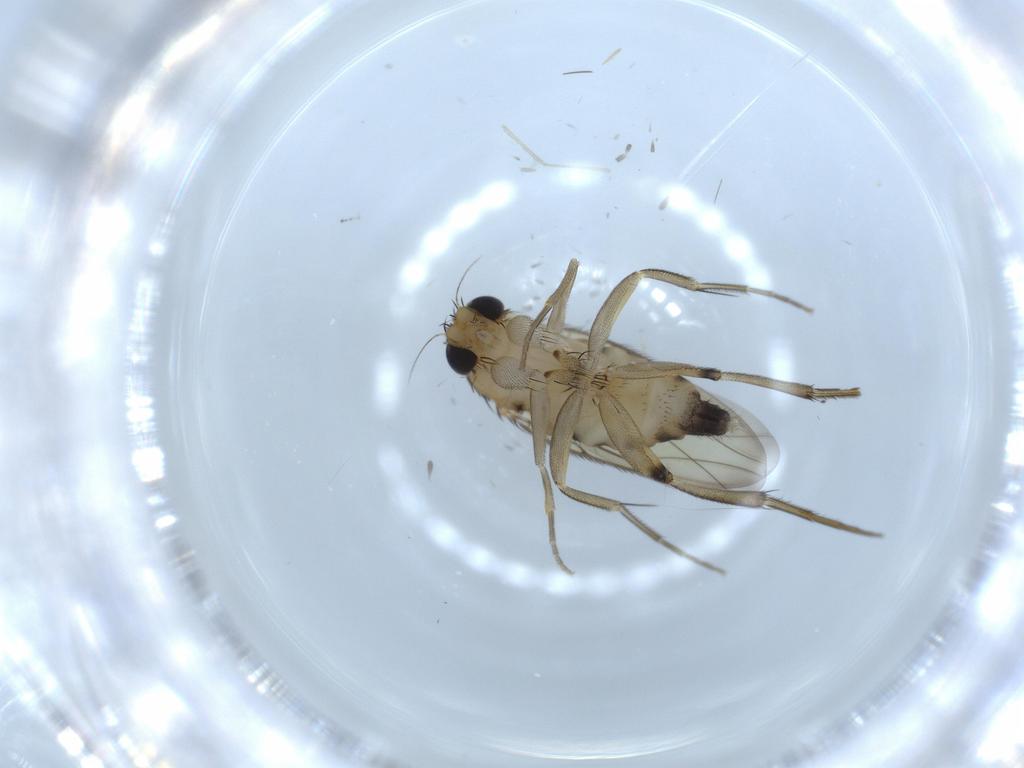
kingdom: Animalia
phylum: Arthropoda
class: Insecta
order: Diptera
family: Phoridae
